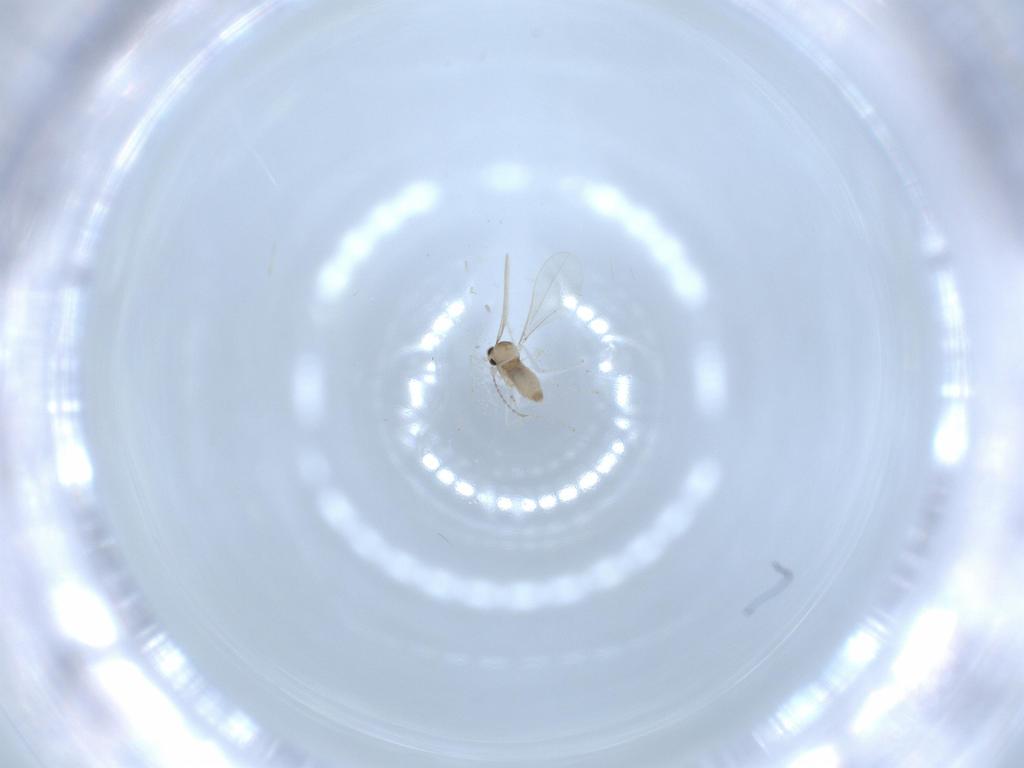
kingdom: Animalia
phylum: Arthropoda
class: Insecta
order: Diptera
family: Cecidomyiidae
